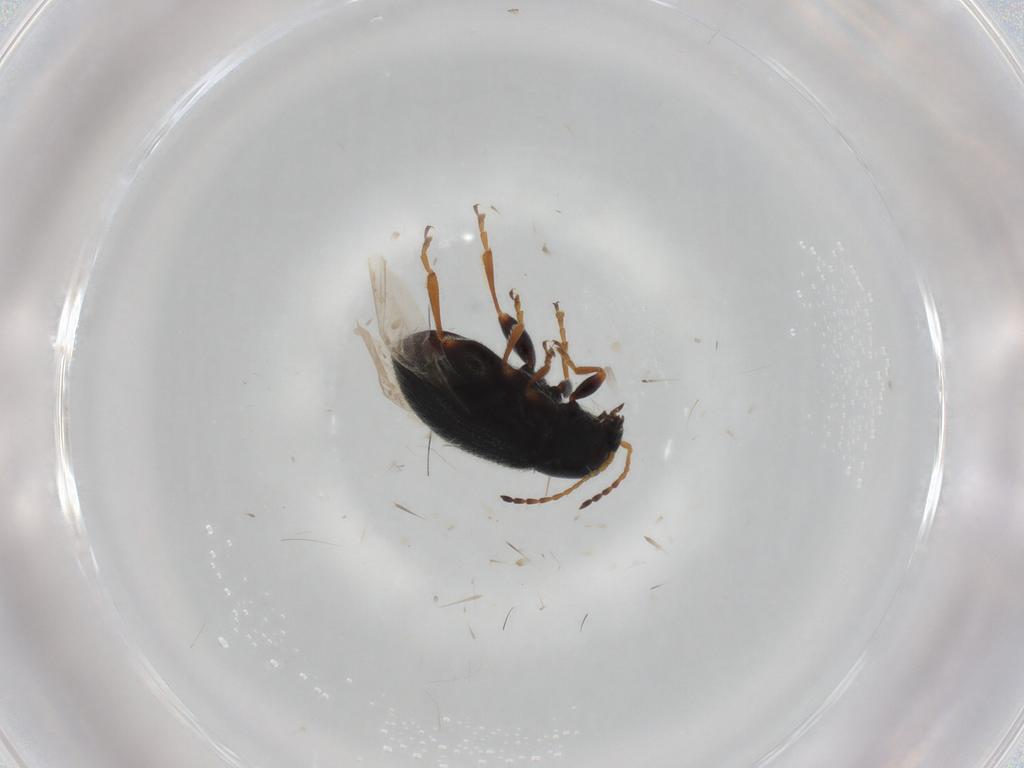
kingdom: Animalia
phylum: Arthropoda
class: Insecta
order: Coleoptera
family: Chrysomelidae
